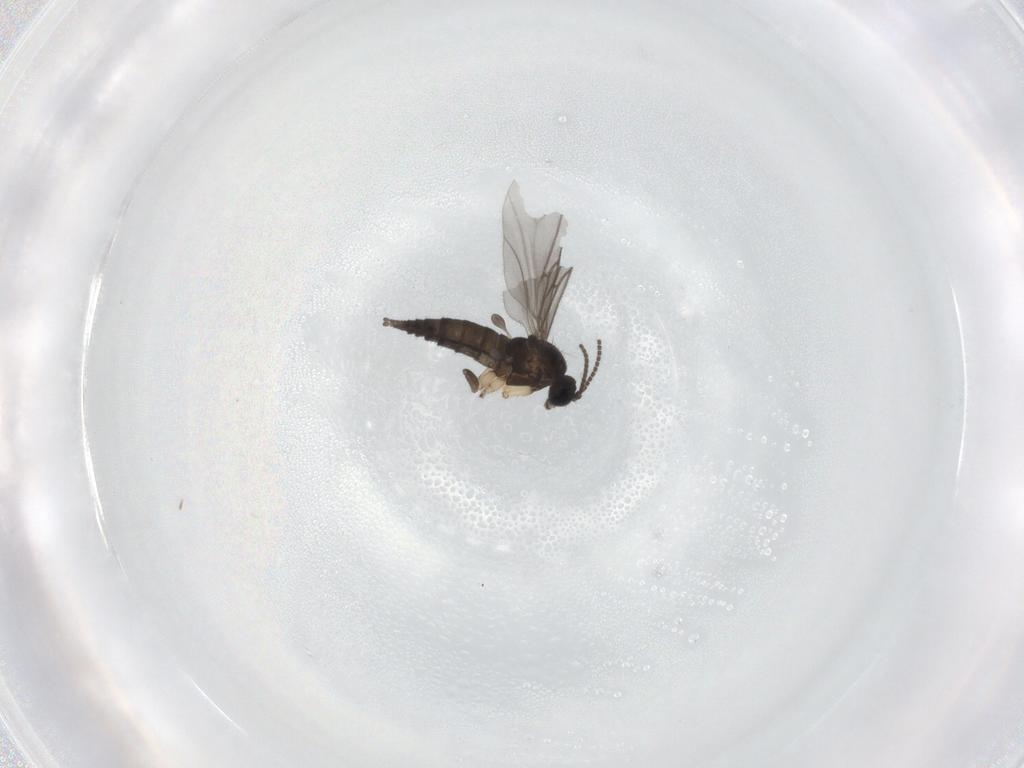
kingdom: Animalia
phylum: Arthropoda
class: Insecta
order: Diptera
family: Sciaridae
